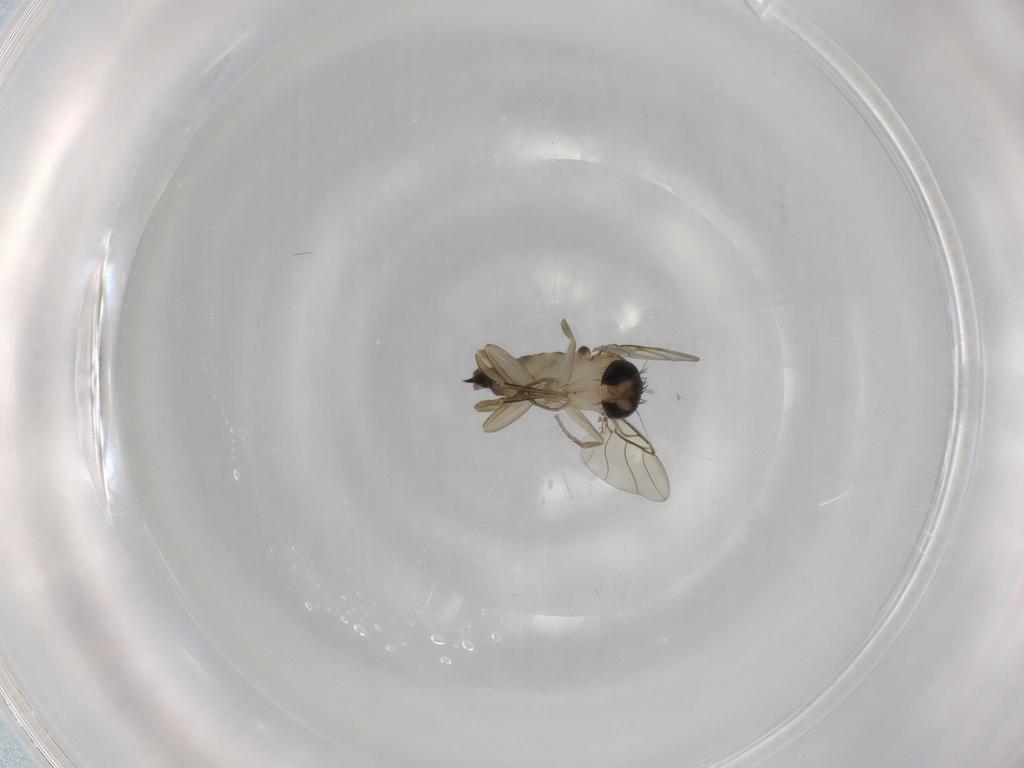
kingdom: Animalia
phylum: Arthropoda
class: Insecta
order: Diptera
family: Phoridae
